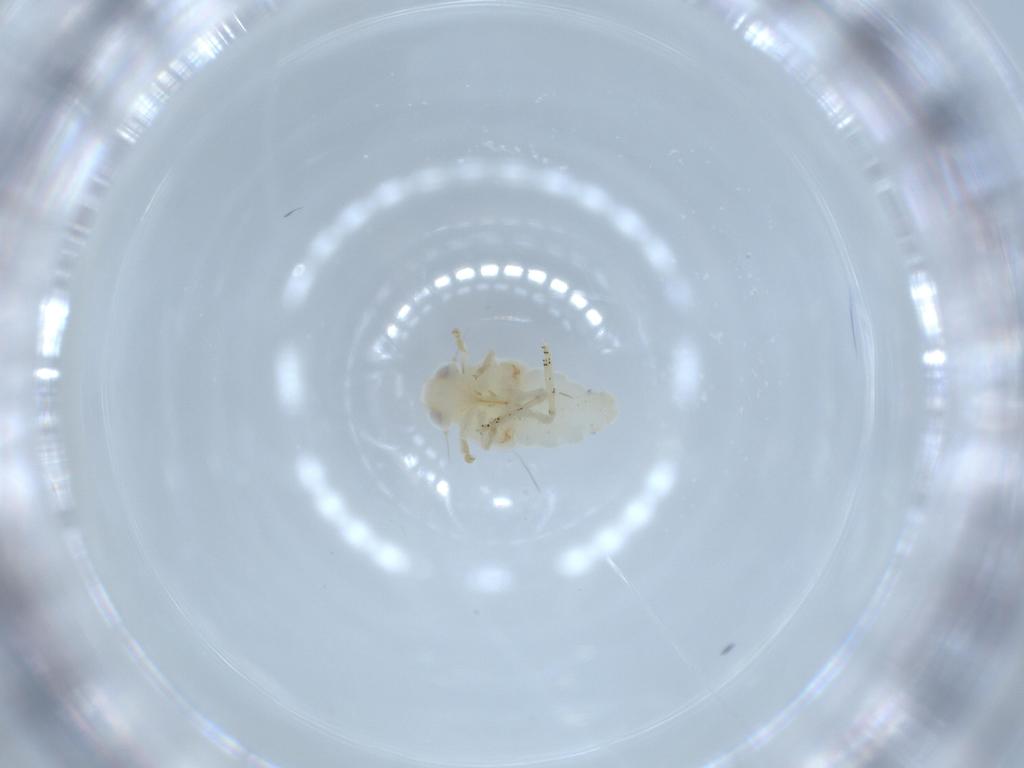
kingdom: Animalia
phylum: Arthropoda
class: Insecta
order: Hemiptera
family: Nogodinidae
